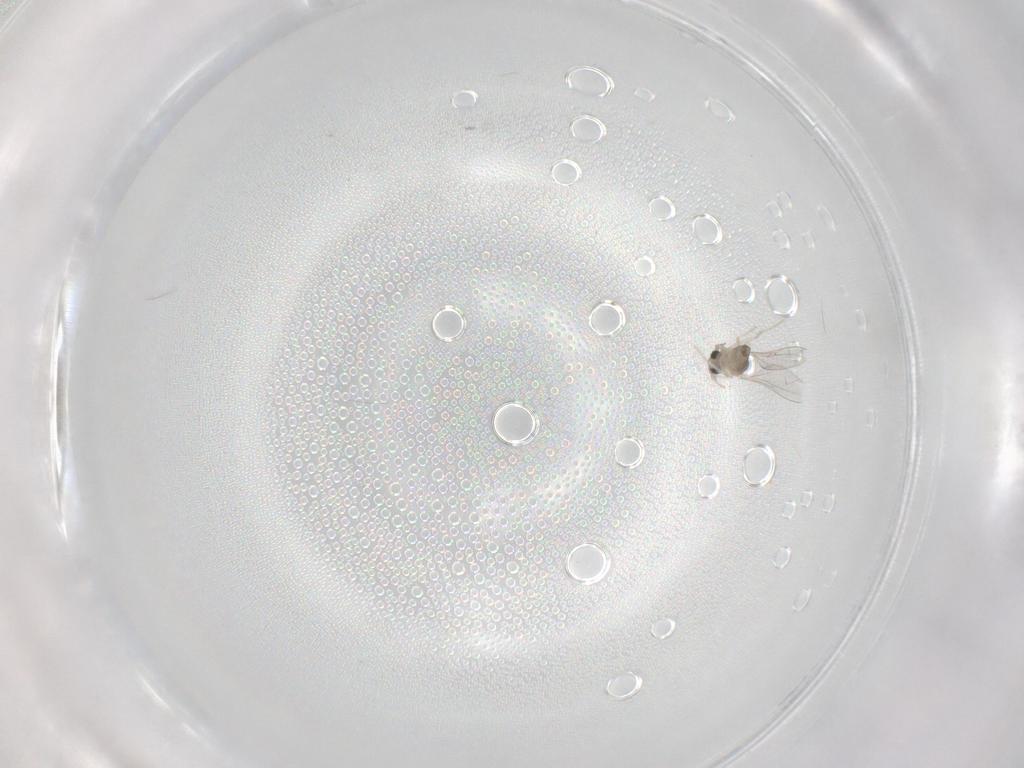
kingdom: Animalia
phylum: Arthropoda
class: Insecta
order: Diptera
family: Cecidomyiidae
